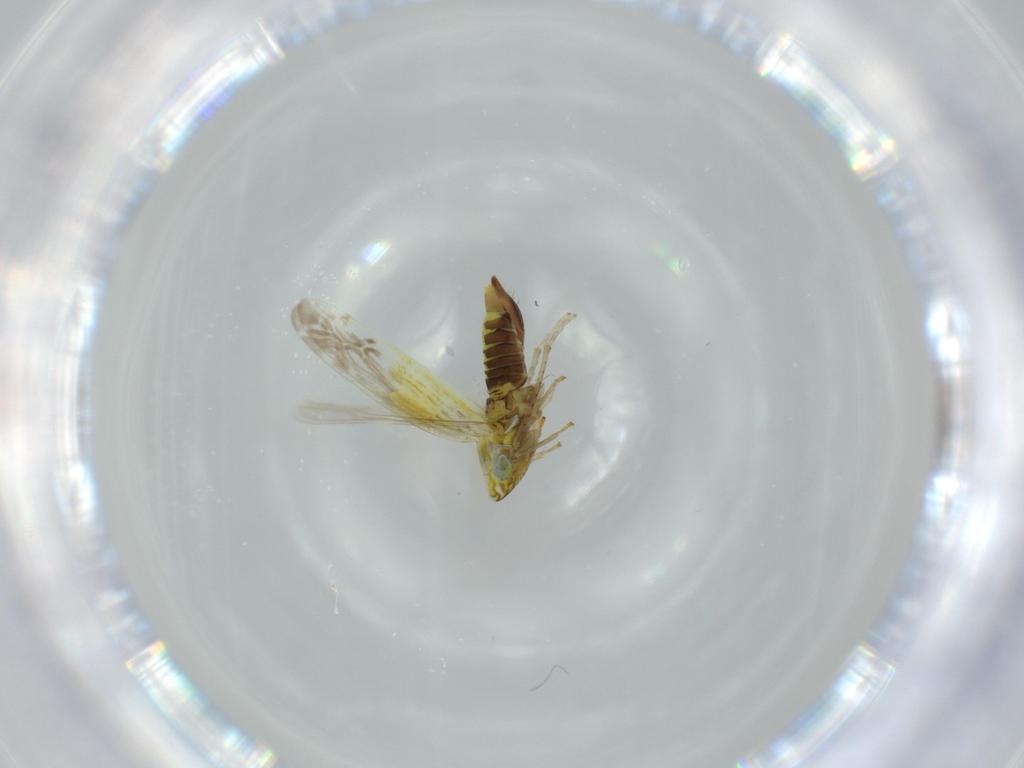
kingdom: Animalia
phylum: Arthropoda
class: Insecta
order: Hemiptera
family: Cicadellidae
